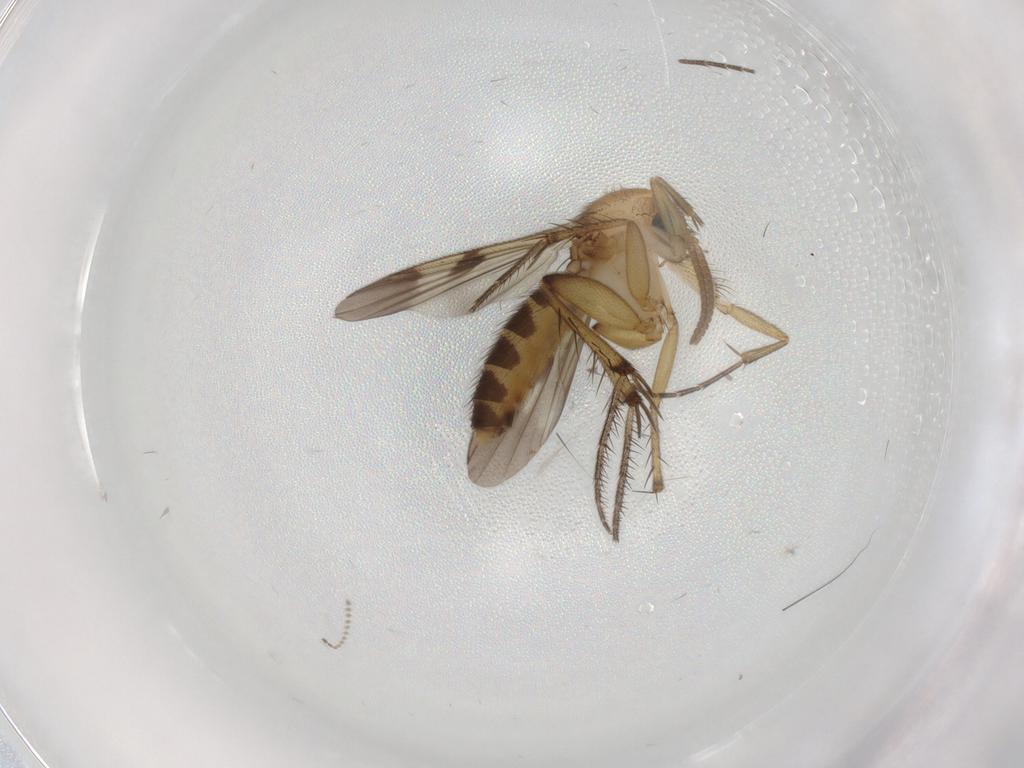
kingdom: Animalia
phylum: Arthropoda
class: Insecta
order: Diptera
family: Mycetophilidae
